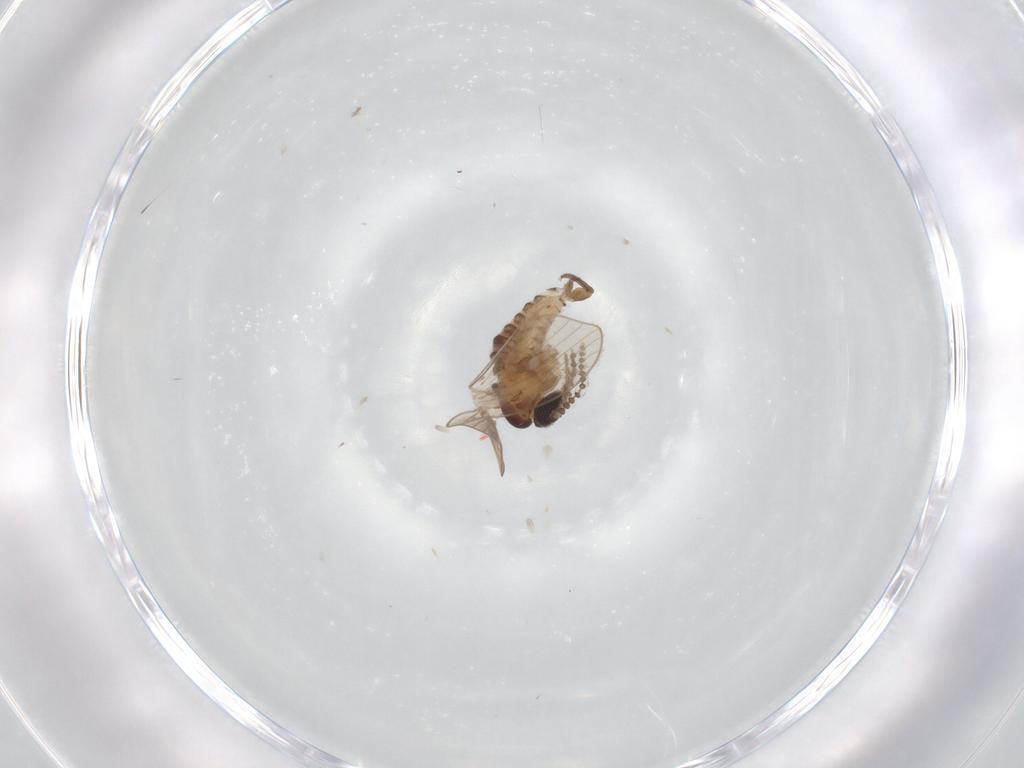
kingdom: Animalia
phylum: Arthropoda
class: Insecta
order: Diptera
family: Psychodidae
